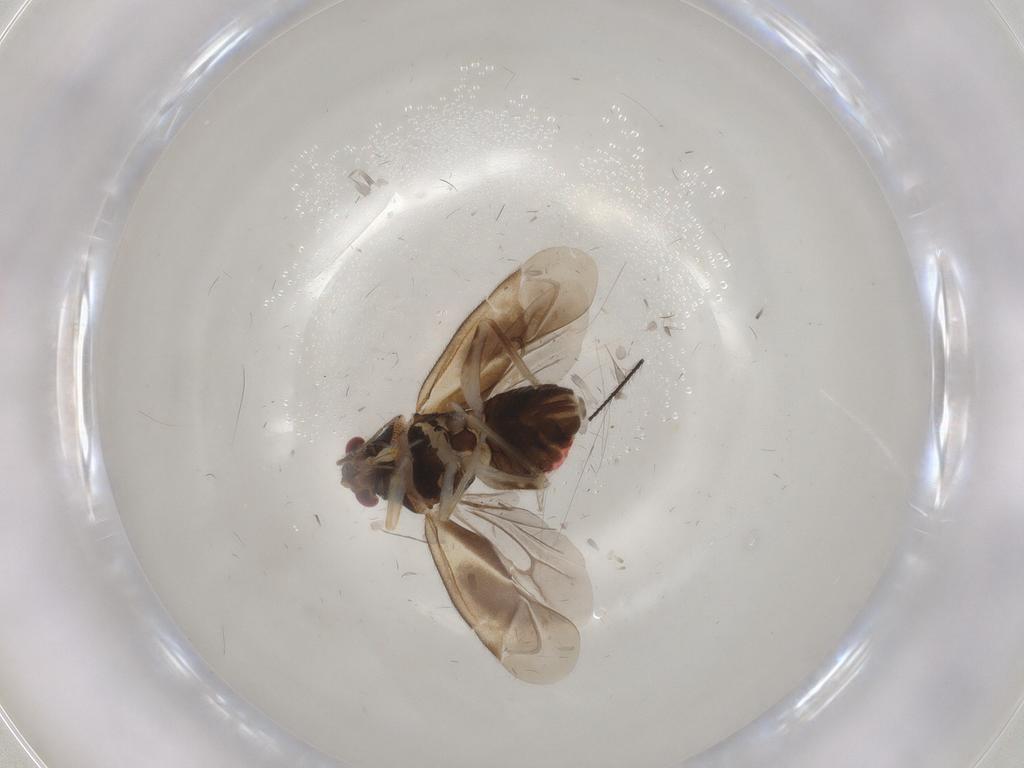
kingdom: Animalia
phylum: Arthropoda
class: Insecta
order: Hemiptera
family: Miridae
